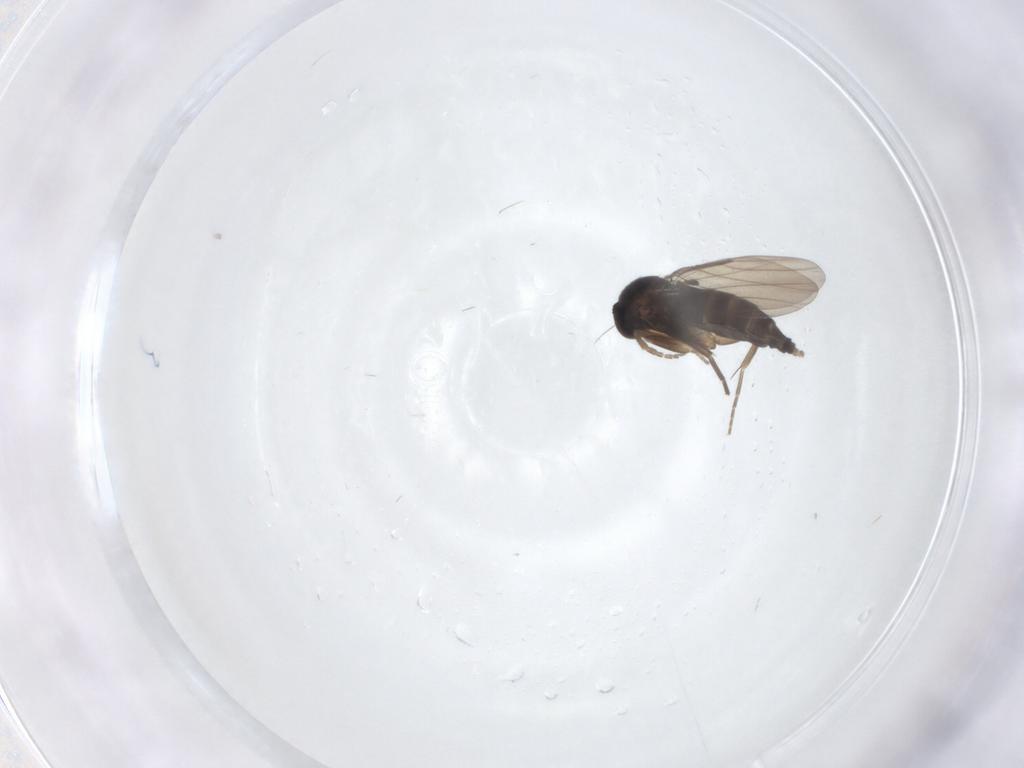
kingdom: Animalia
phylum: Arthropoda
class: Insecta
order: Diptera
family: Phoridae
